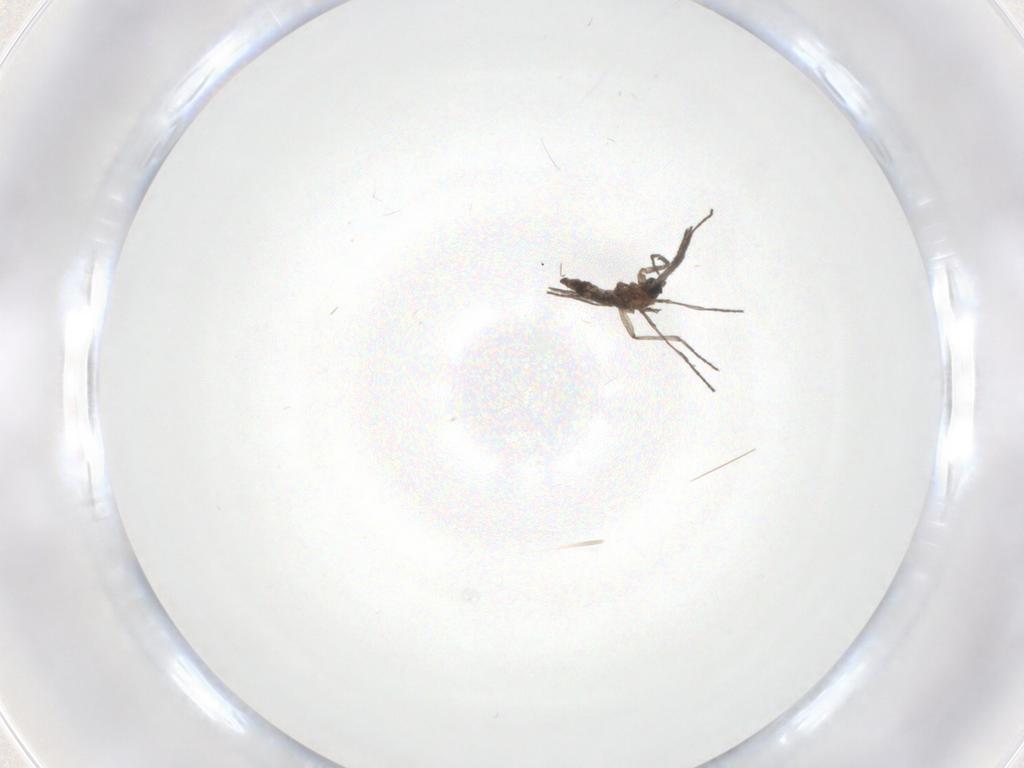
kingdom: Animalia
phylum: Arthropoda
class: Insecta
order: Diptera
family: Sciaridae
